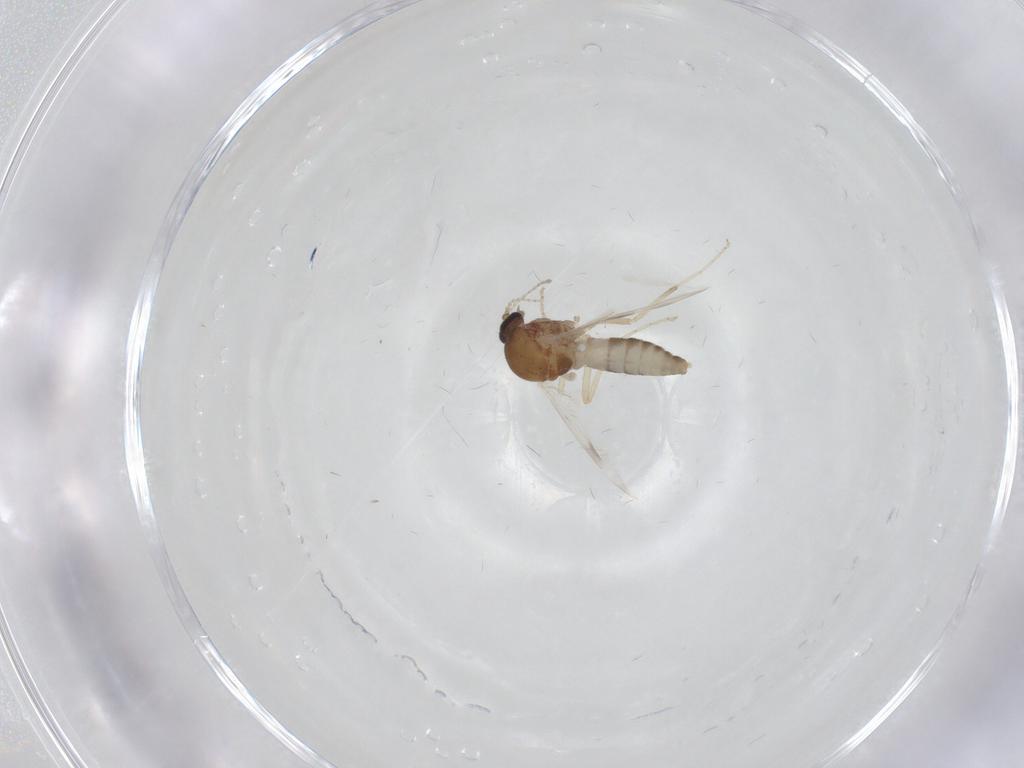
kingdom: Animalia
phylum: Arthropoda
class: Insecta
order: Diptera
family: Ceratopogonidae
